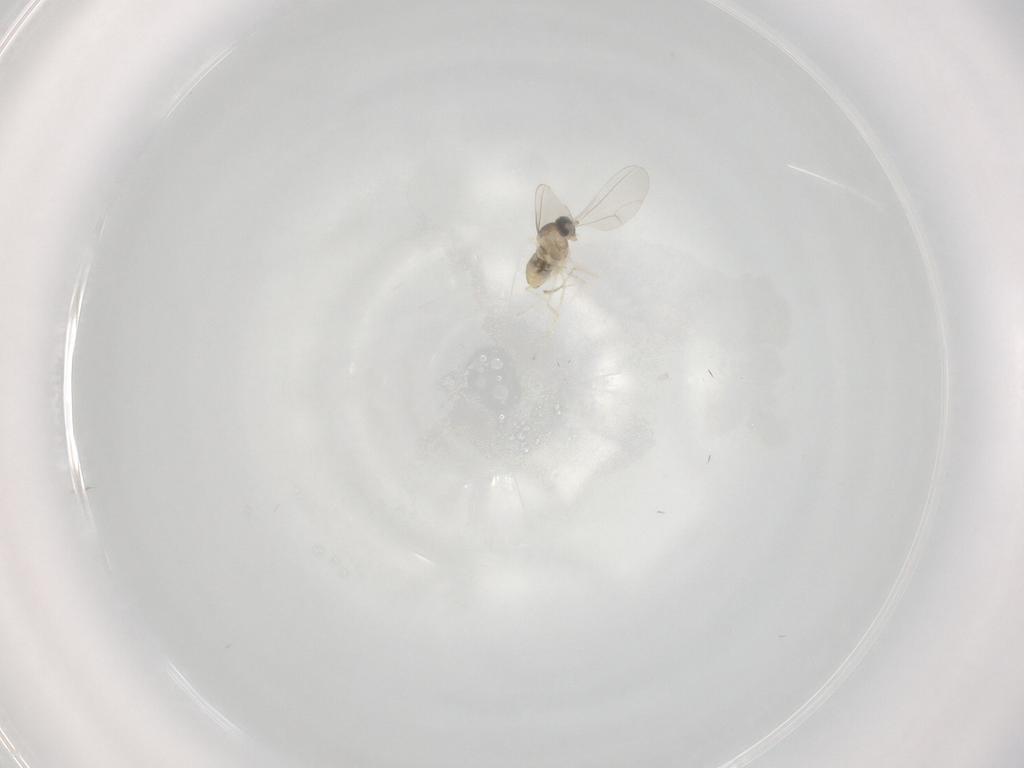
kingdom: Animalia
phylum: Arthropoda
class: Insecta
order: Diptera
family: Cecidomyiidae
